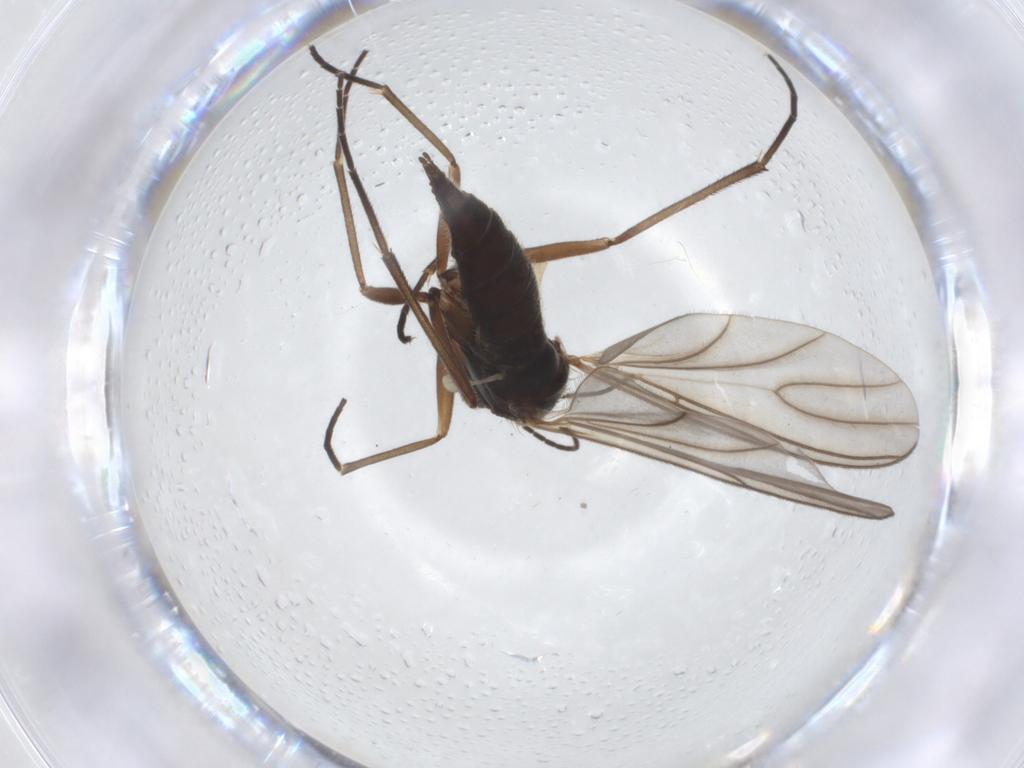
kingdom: Animalia
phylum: Arthropoda
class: Insecta
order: Diptera
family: Sciaridae
